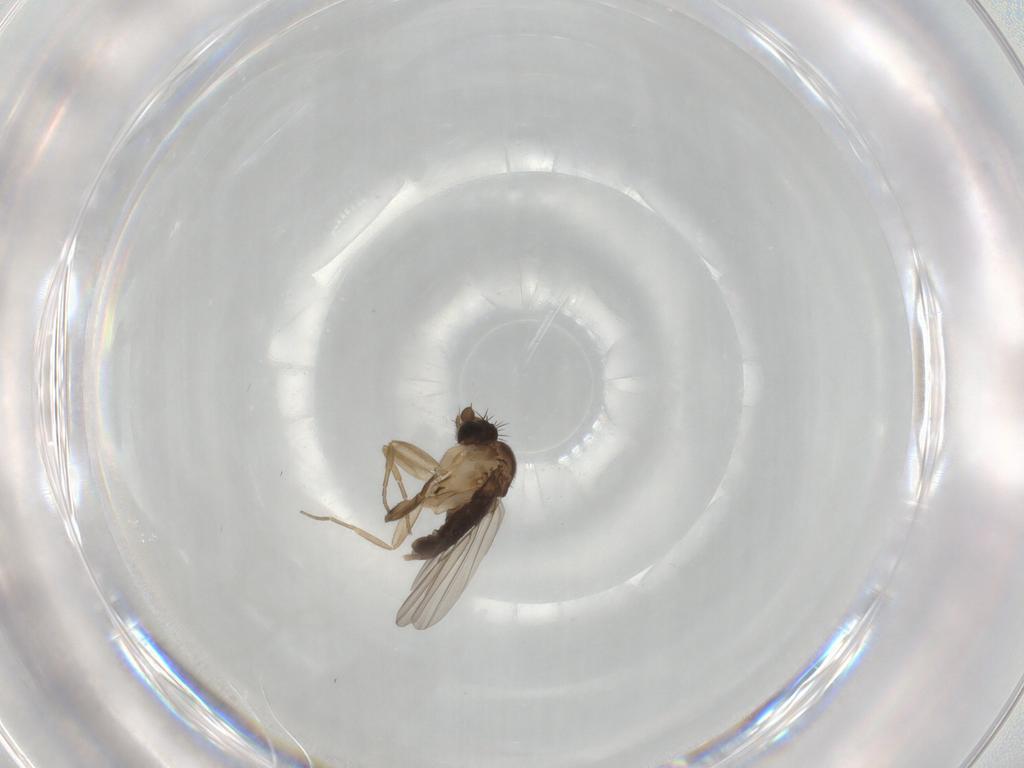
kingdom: Animalia
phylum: Arthropoda
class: Insecta
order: Diptera
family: Phoridae
